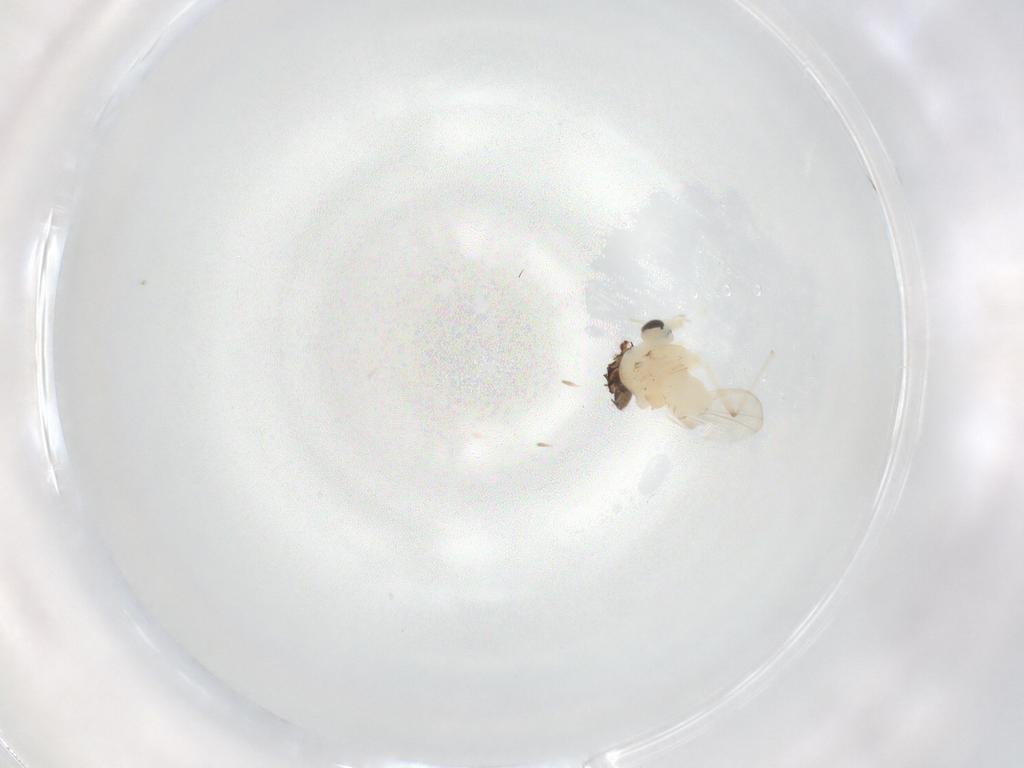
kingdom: Animalia
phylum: Arthropoda
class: Insecta
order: Diptera
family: Chironomidae
